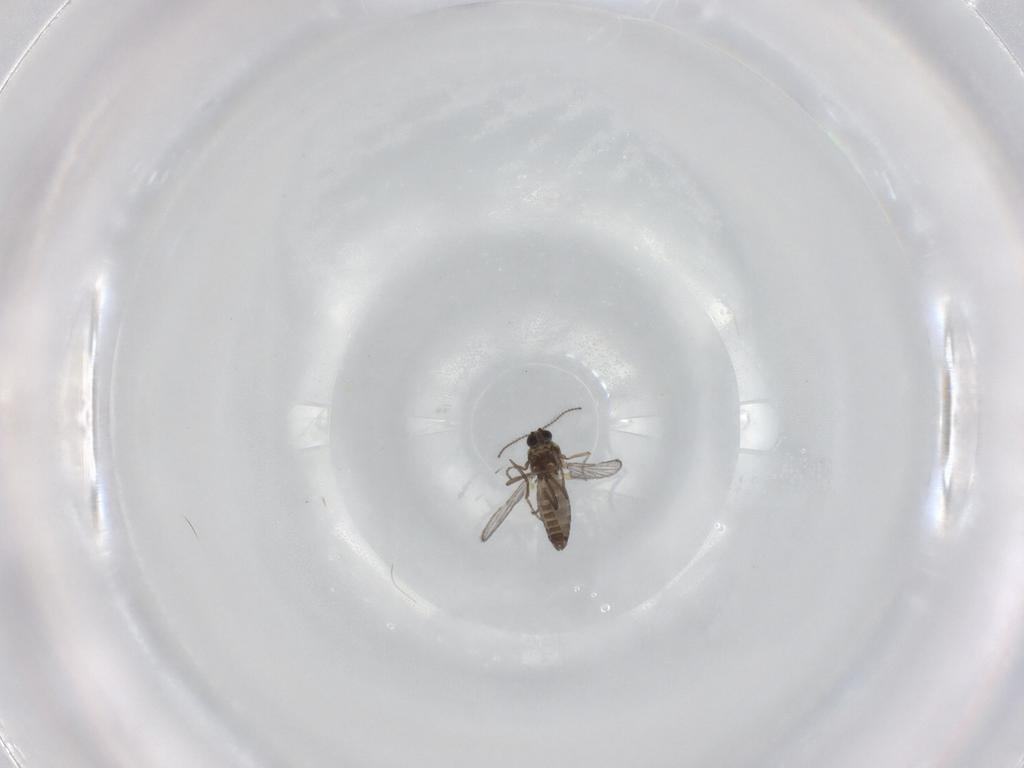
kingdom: Animalia
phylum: Arthropoda
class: Insecta
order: Diptera
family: Ceratopogonidae
